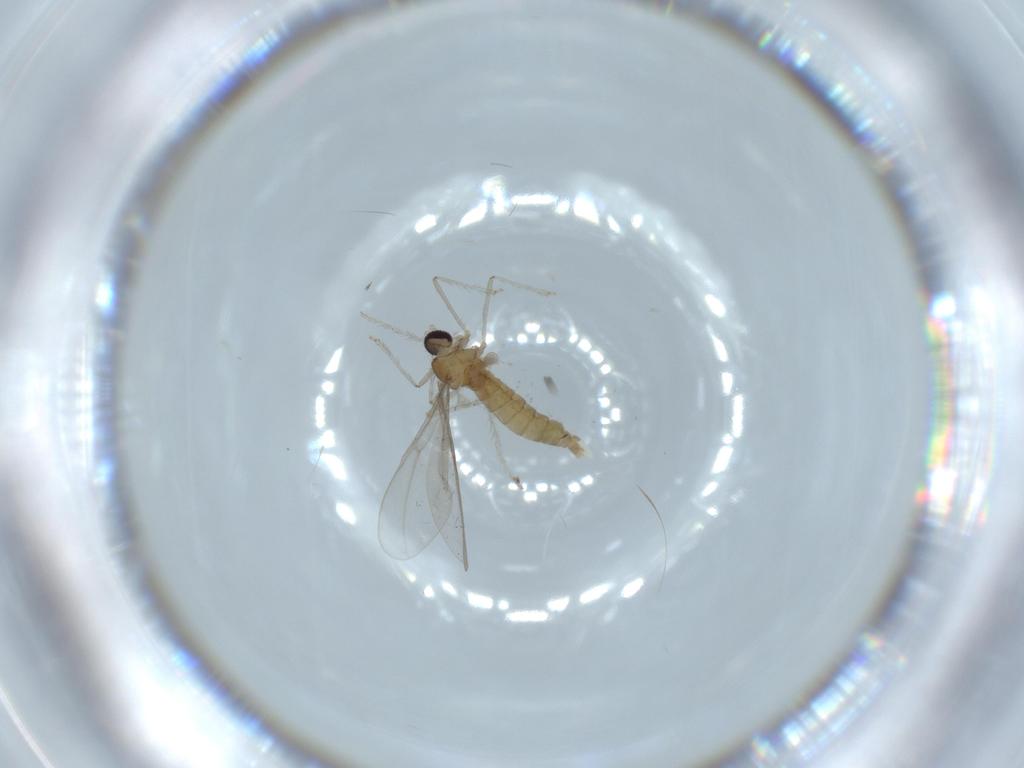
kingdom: Animalia
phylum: Arthropoda
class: Insecta
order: Diptera
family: Cecidomyiidae
